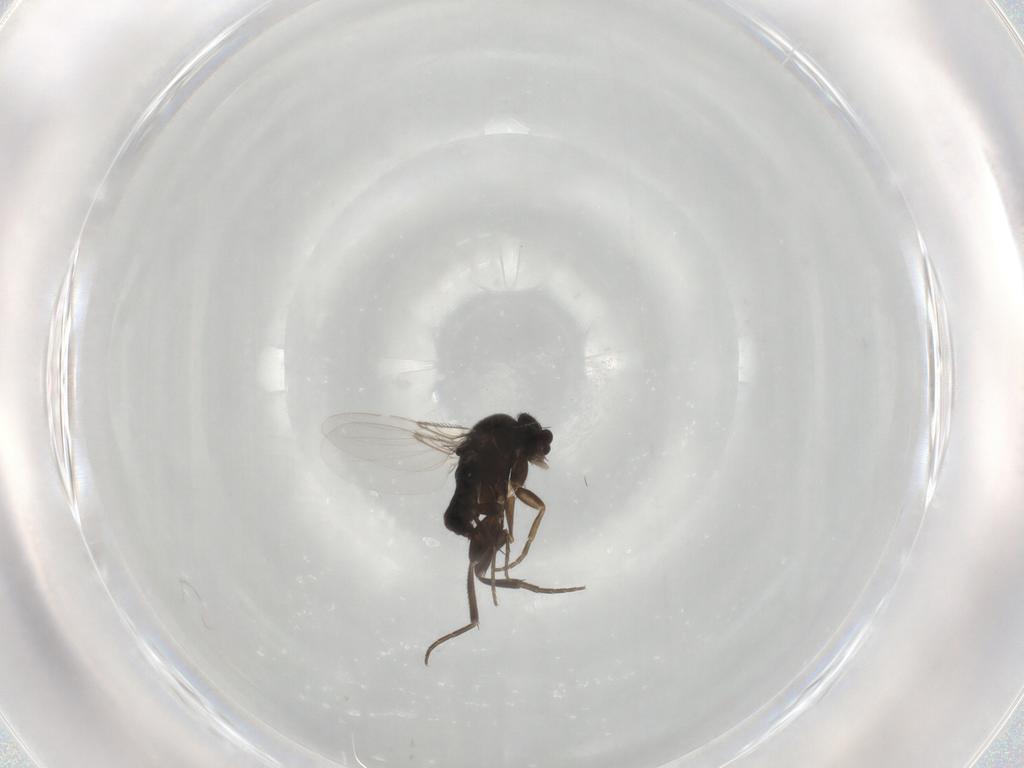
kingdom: Animalia
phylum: Arthropoda
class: Insecta
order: Diptera
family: Phoridae
